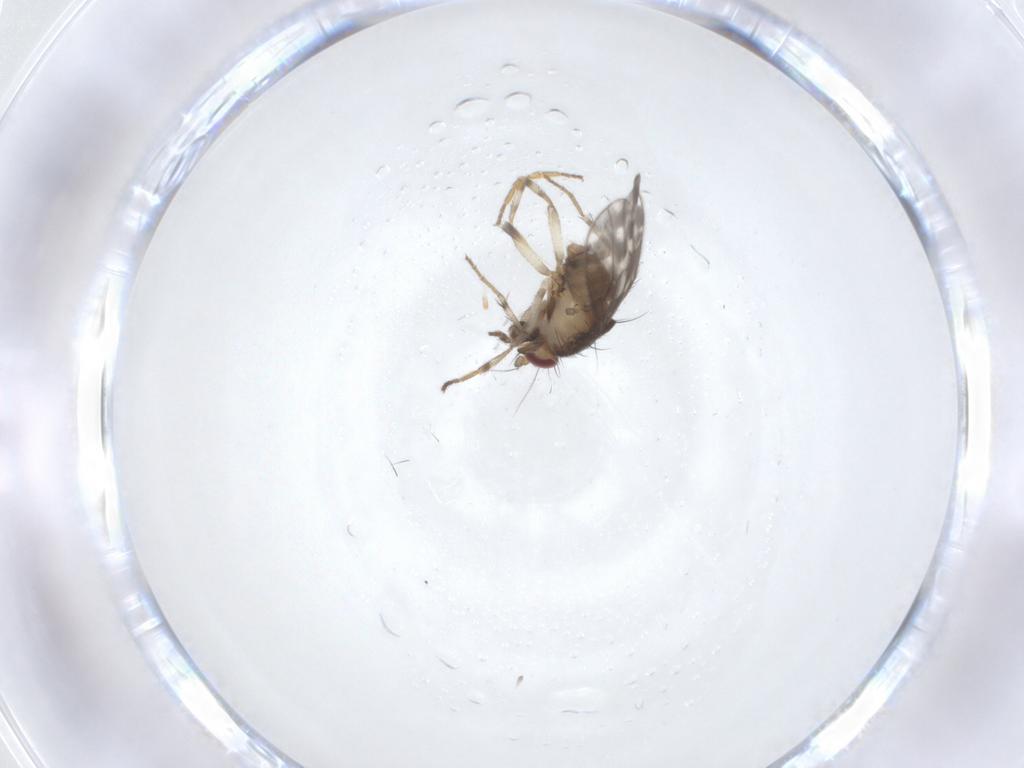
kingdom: Animalia
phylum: Arthropoda
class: Insecta
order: Diptera
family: Sphaeroceridae
